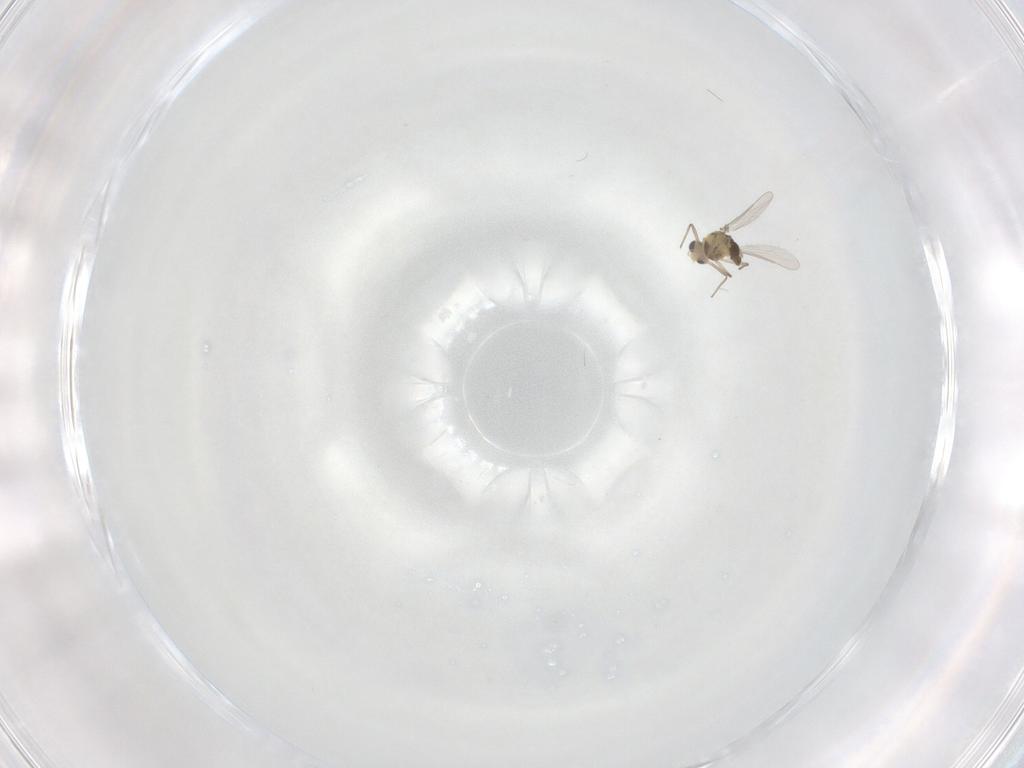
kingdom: Animalia
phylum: Arthropoda
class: Insecta
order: Diptera
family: Chironomidae
